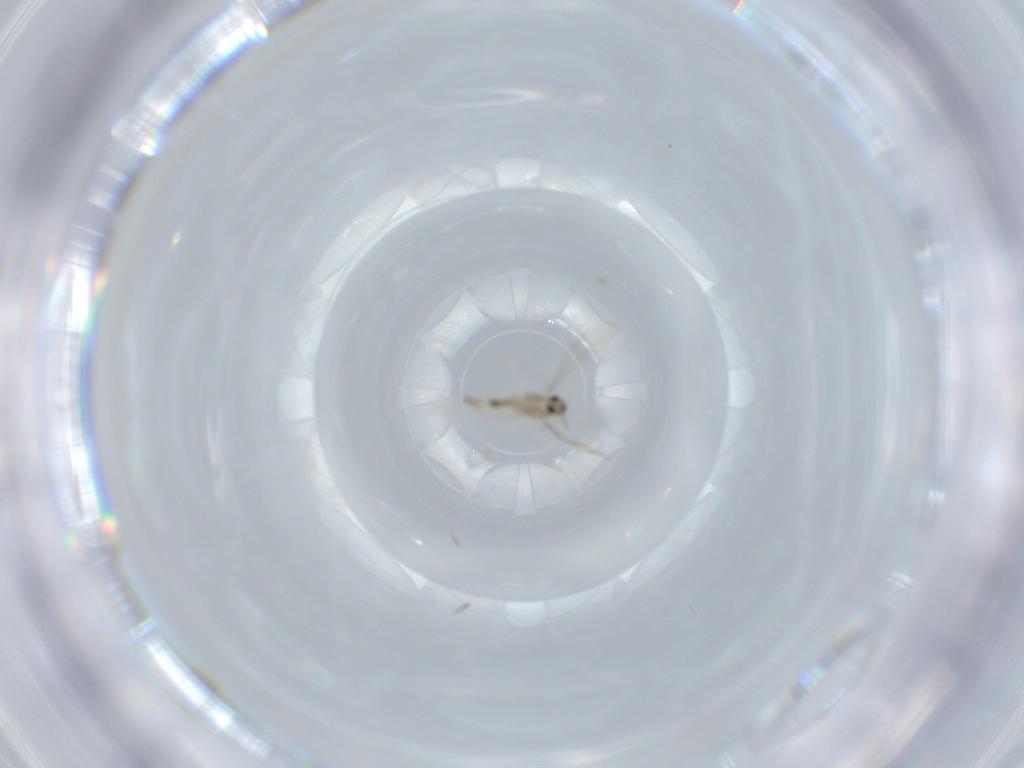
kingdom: Animalia
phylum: Arthropoda
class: Insecta
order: Diptera
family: Cecidomyiidae
